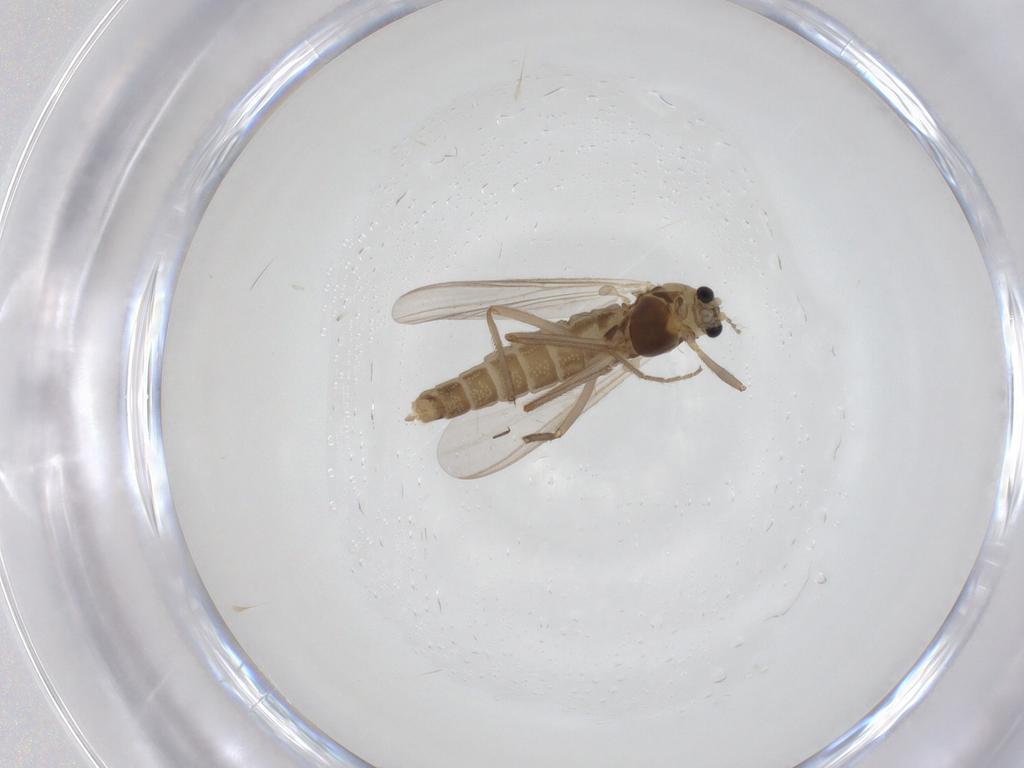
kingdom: Animalia
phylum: Arthropoda
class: Insecta
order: Diptera
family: Chironomidae
